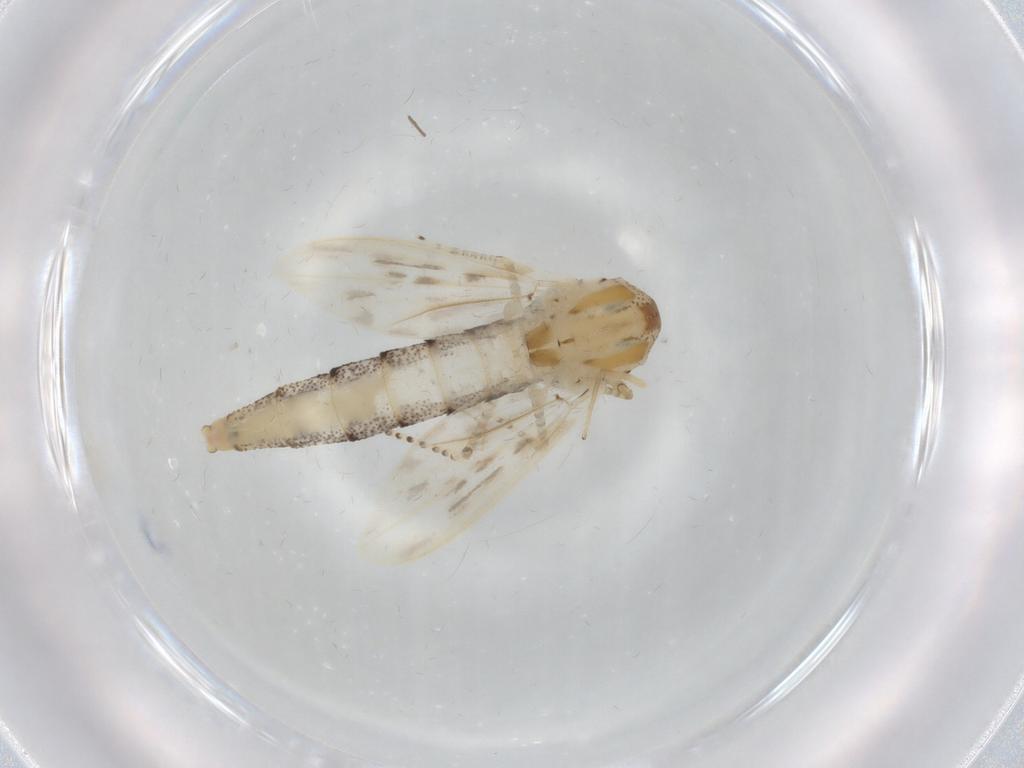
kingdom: Animalia
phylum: Arthropoda
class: Insecta
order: Diptera
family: Chaoboridae
